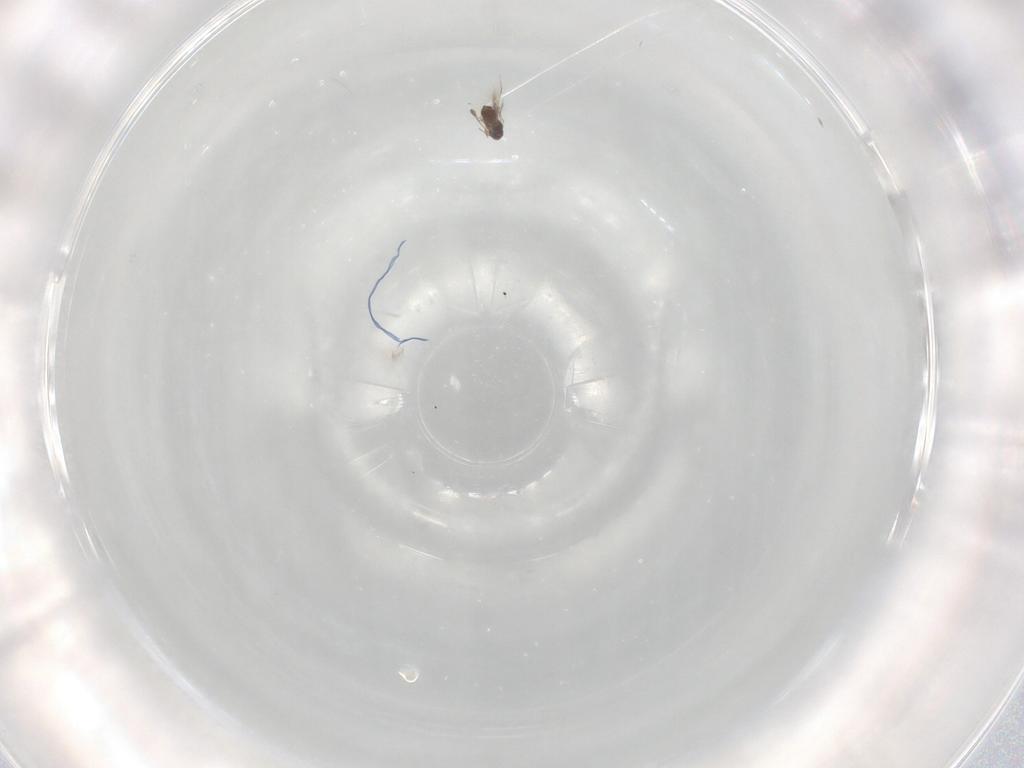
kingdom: Animalia
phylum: Arthropoda
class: Insecta
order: Hymenoptera
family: Mymaridae
